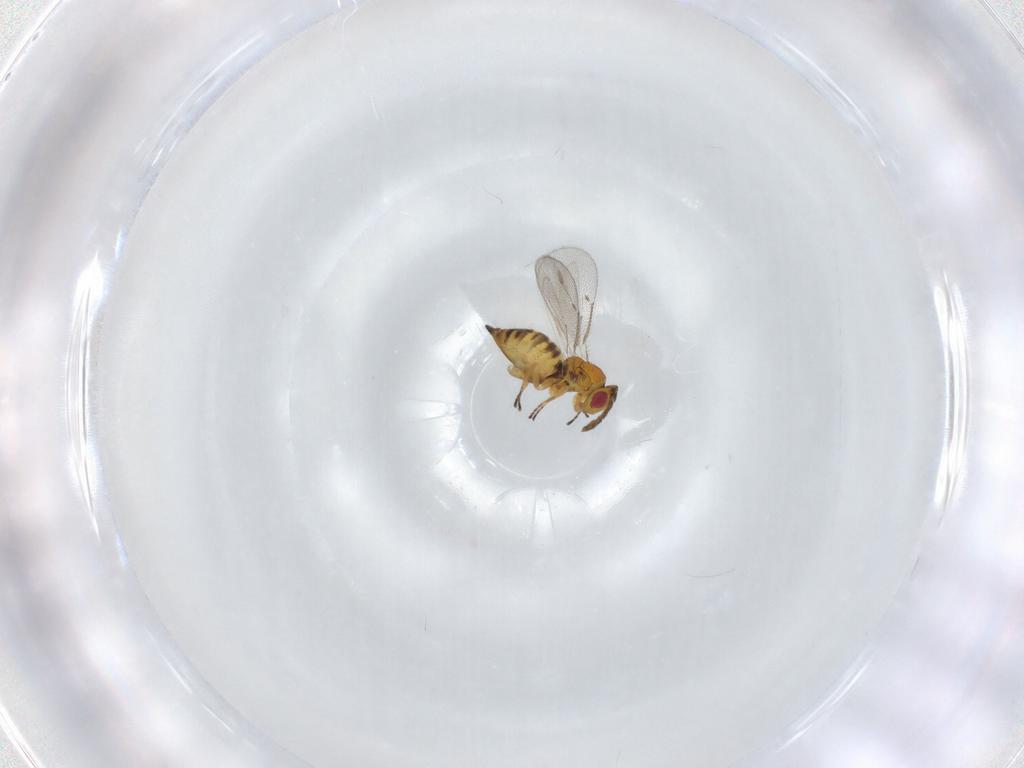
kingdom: Animalia
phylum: Arthropoda
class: Insecta
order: Hymenoptera
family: Eulophidae
